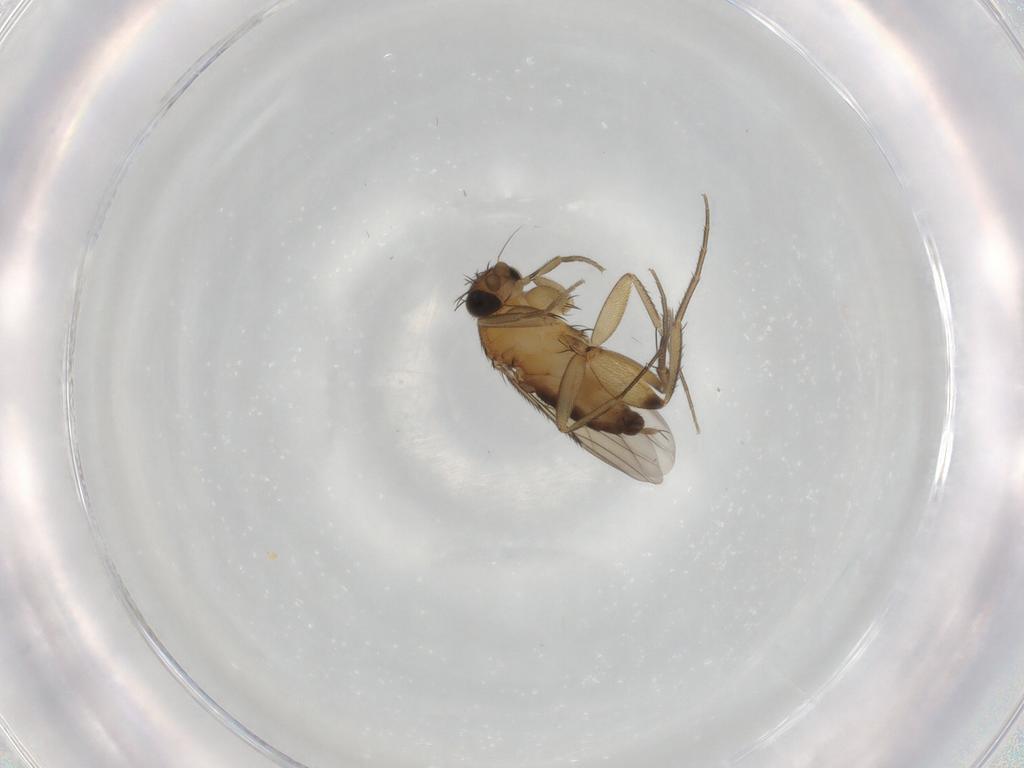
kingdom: Animalia
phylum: Arthropoda
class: Insecta
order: Diptera
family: Phoridae
